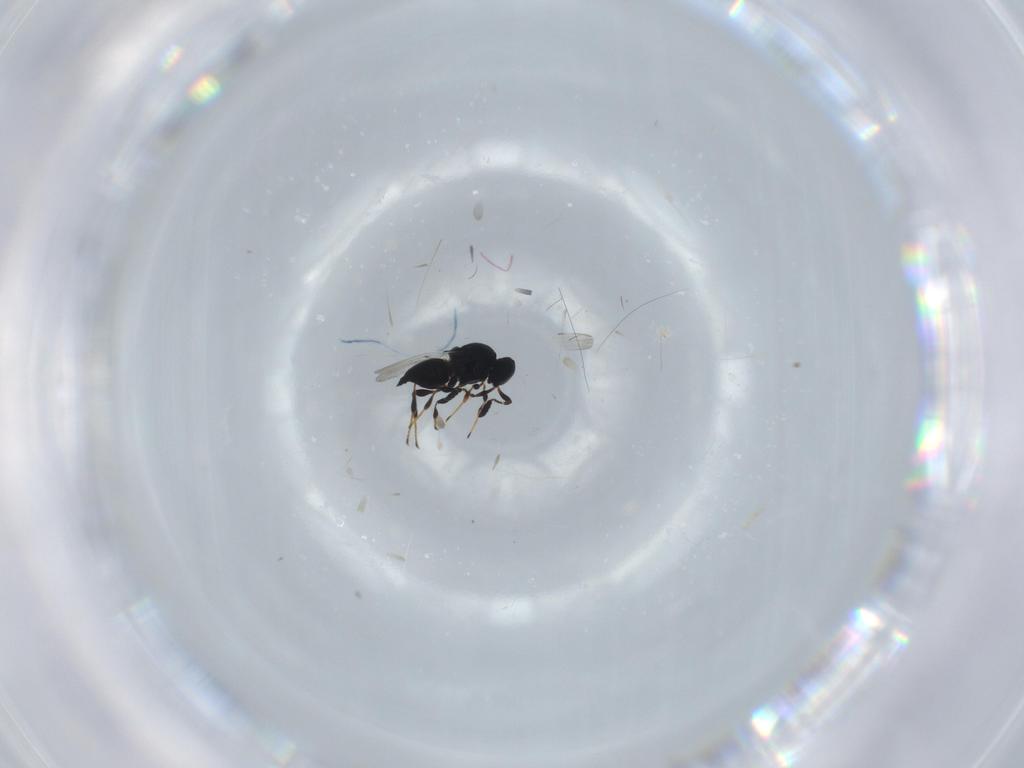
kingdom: Animalia
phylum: Arthropoda
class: Insecta
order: Hymenoptera
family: Platygastridae
